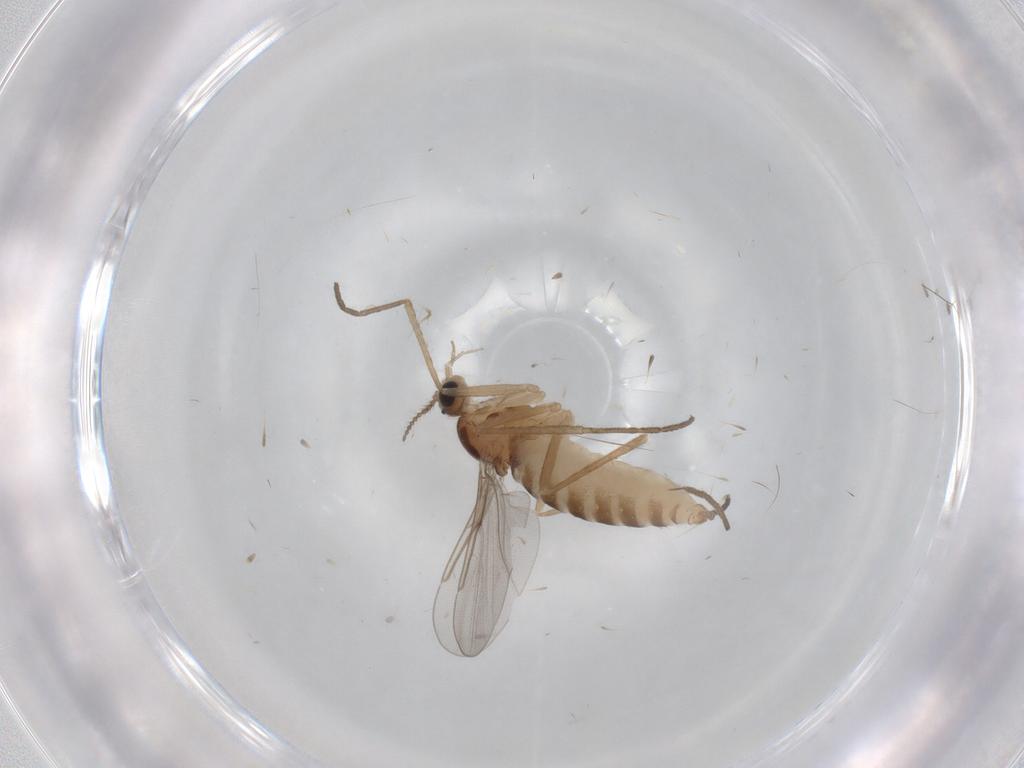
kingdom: Animalia
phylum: Arthropoda
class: Insecta
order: Diptera
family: Cecidomyiidae
